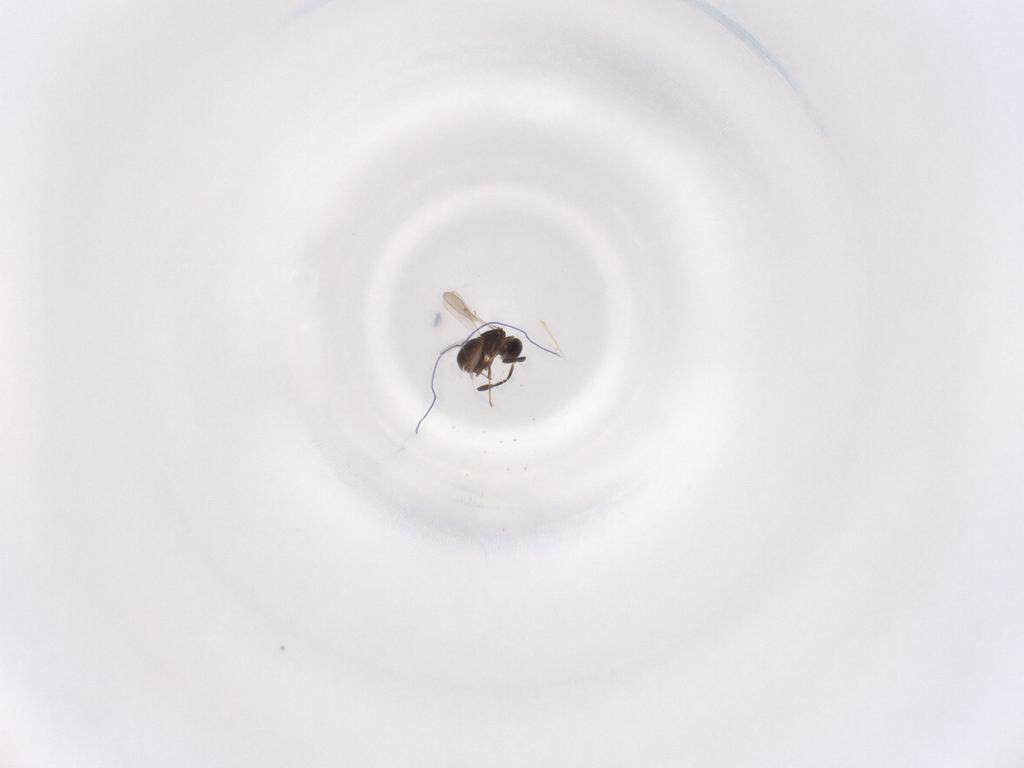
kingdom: Animalia
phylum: Arthropoda
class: Insecta
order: Hymenoptera
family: Scelionidae
